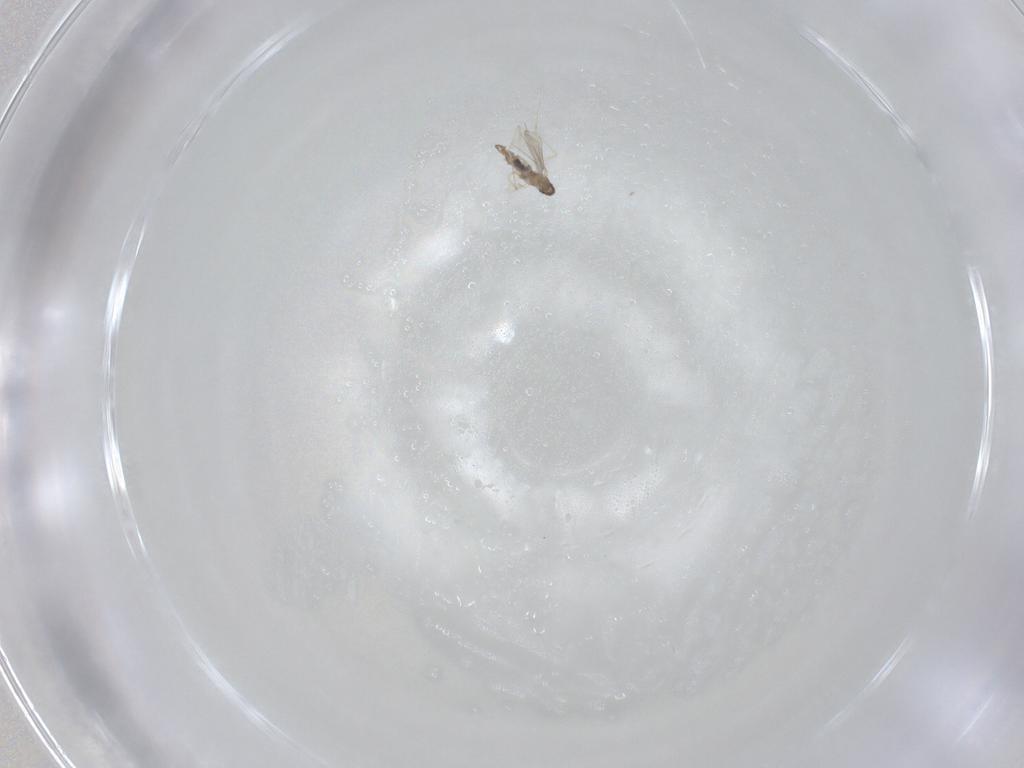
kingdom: Animalia
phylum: Arthropoda
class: Insecta
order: Diptera
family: Cecidomyiidae
